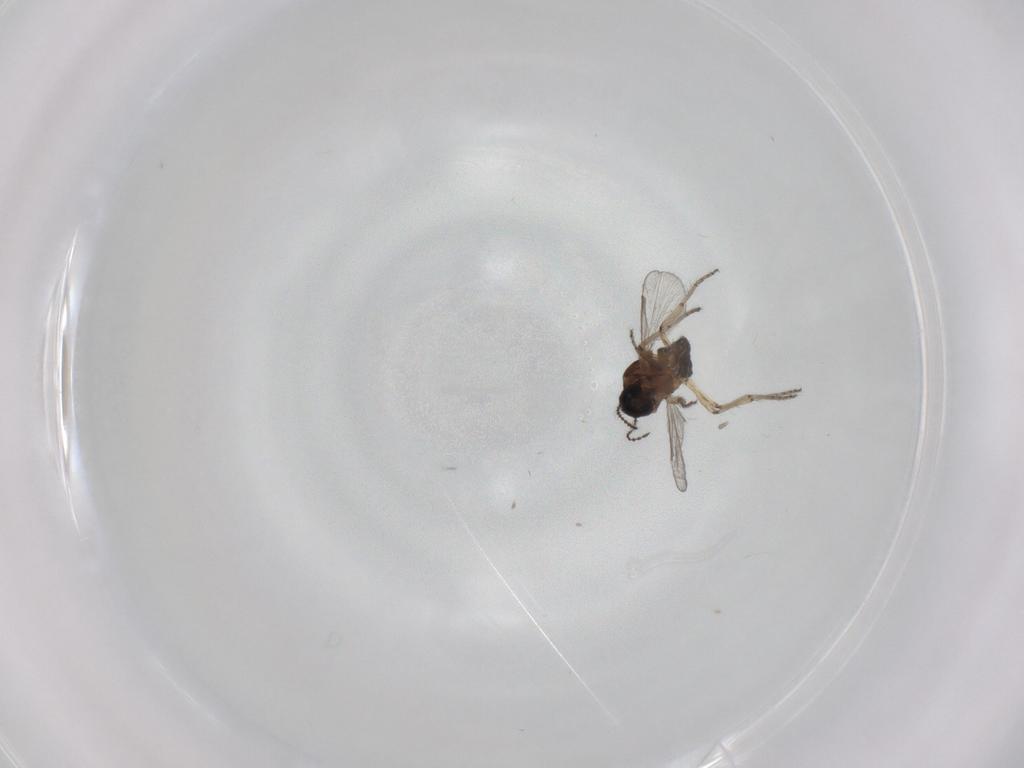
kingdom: Animalia
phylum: Arthropoda
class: Insecta
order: Diptera
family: Ceratopogonidae
